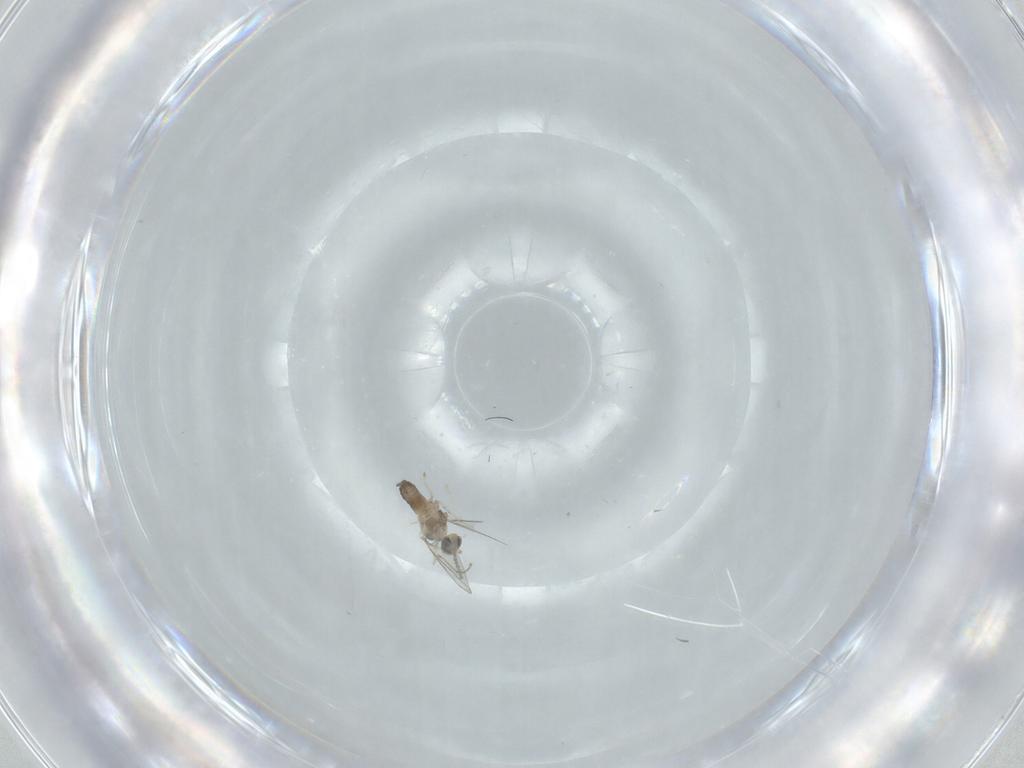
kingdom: Animalia
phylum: Arthropoda
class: Insecta
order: Diptera
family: Cecidomyiidae
